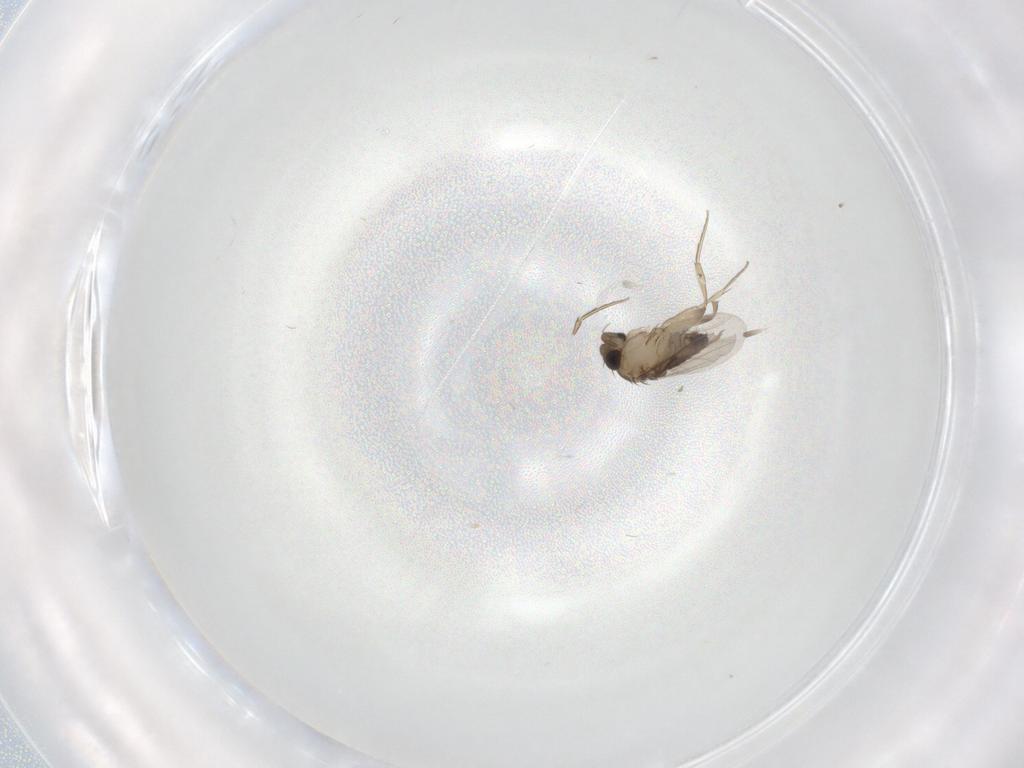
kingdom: Animalia
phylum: Arthropoda
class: Insecta
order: Diptera
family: Phoridae
